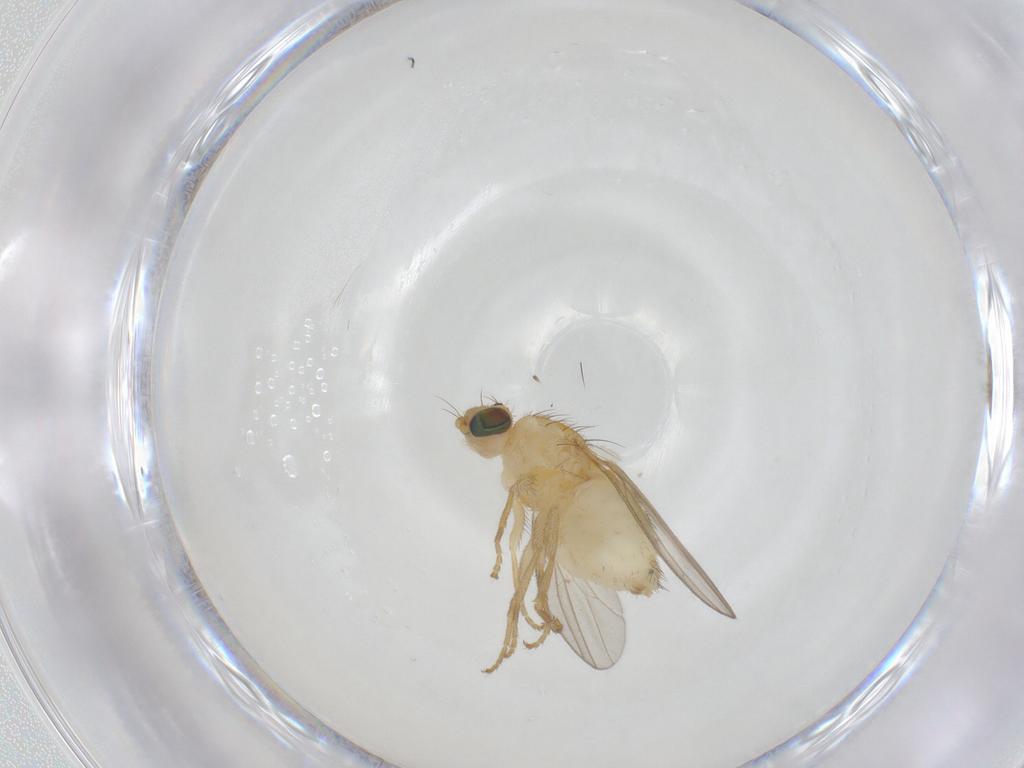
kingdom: Animalia
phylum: Arthropoda
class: Insecta
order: Diptera
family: Chyromyidae
